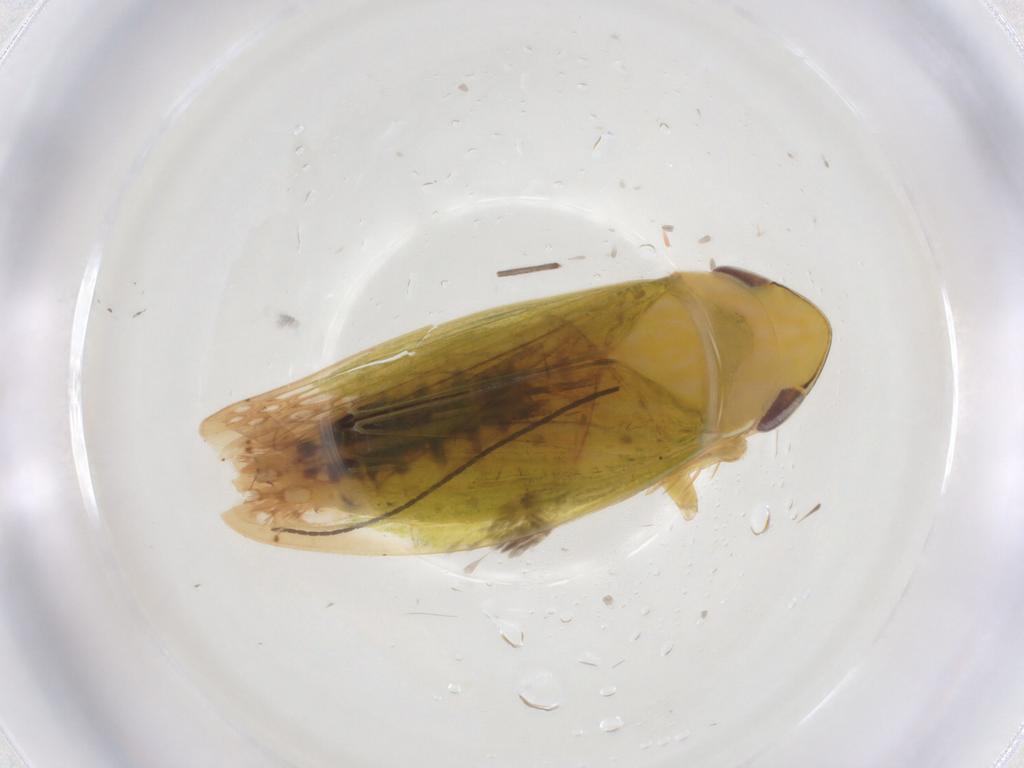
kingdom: Animalia
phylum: Arthropoda
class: Insecta
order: Hemiptera
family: Cicadellidae
